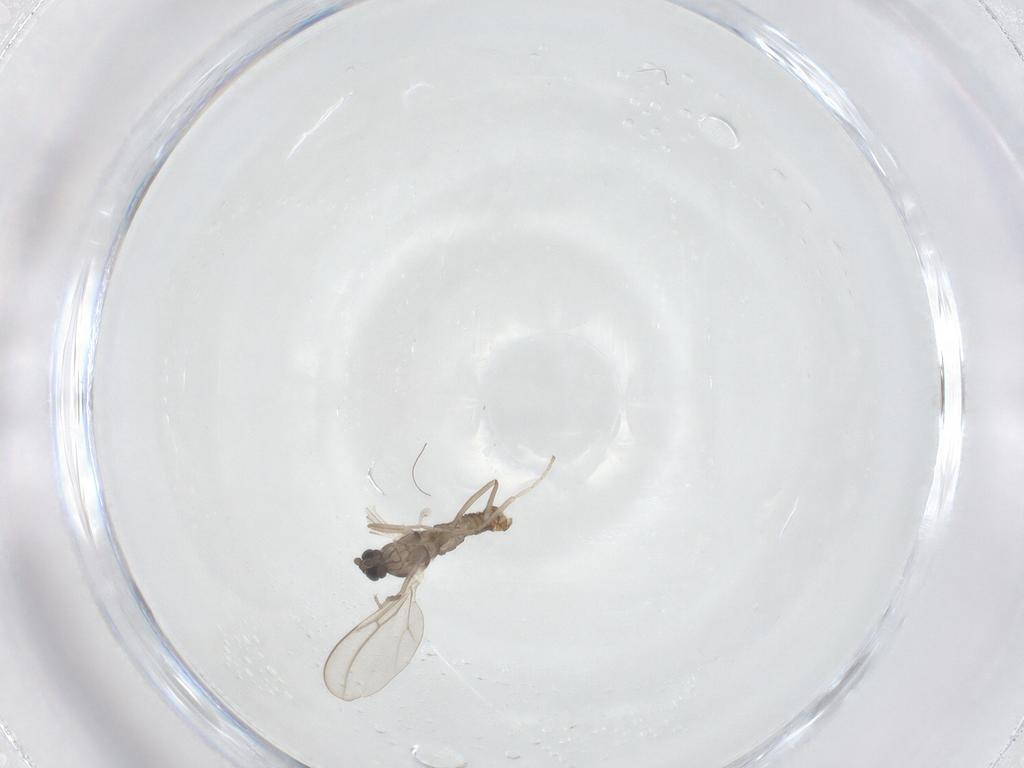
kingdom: Animalia
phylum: Arthropoda
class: Insecta
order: Diptera
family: Cecidomyiidae
